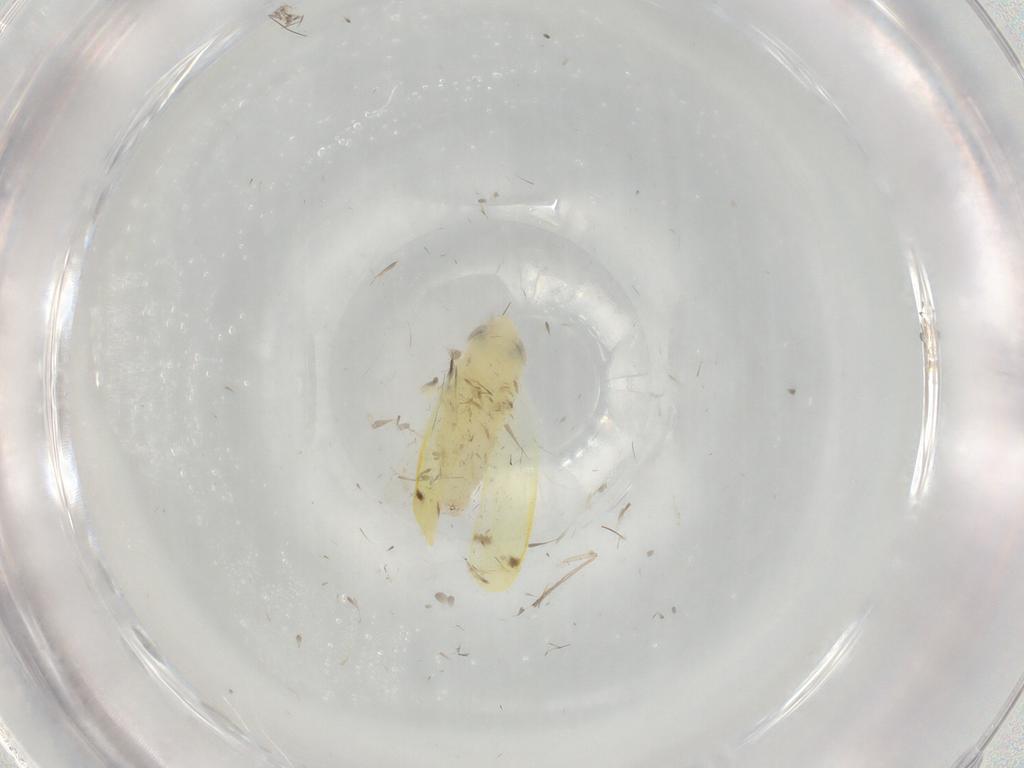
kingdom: Animalia
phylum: Arthropoda
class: Insecta
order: Hemiptera
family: Cicadellidae
